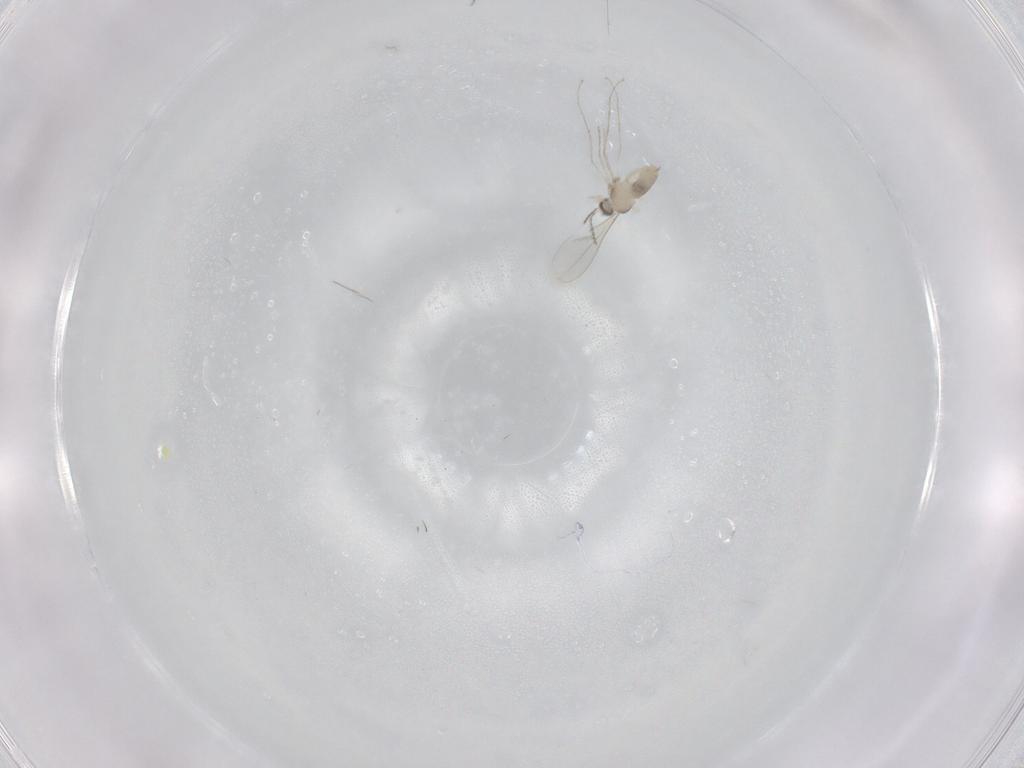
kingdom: Animalia
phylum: Arthropoda
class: Insecta
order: Diptera
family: Cecidomyiidae
